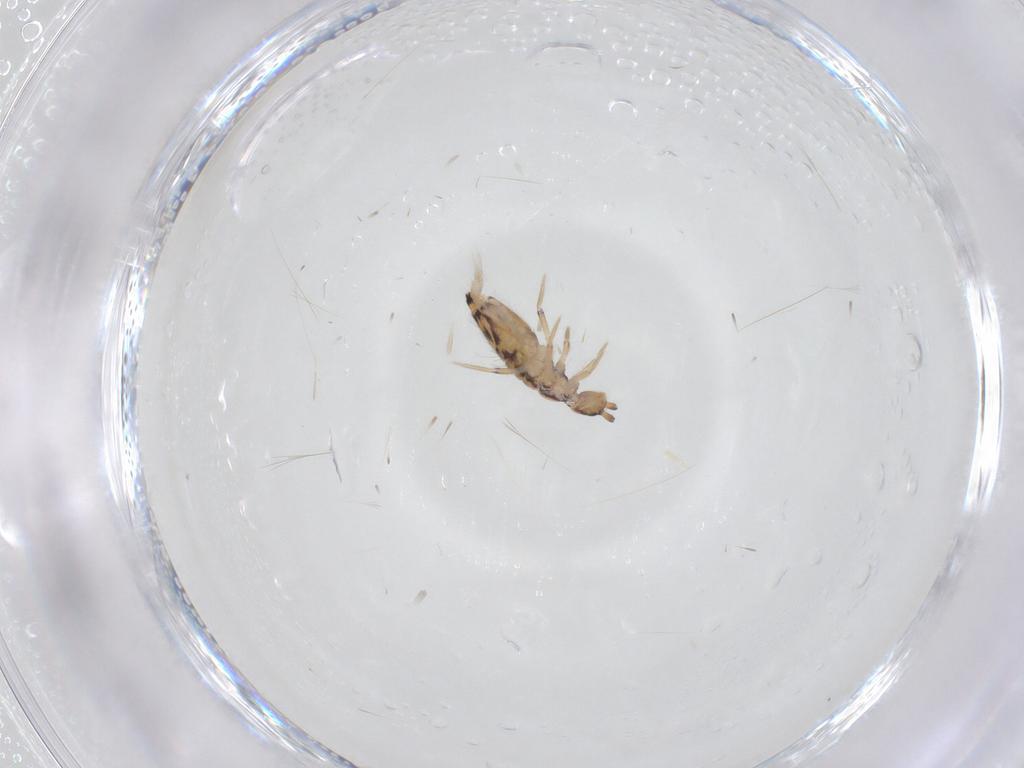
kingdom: Animalia
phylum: Arthropoda
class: Collembola
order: Entomobryomorpha
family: Entomobryidae
